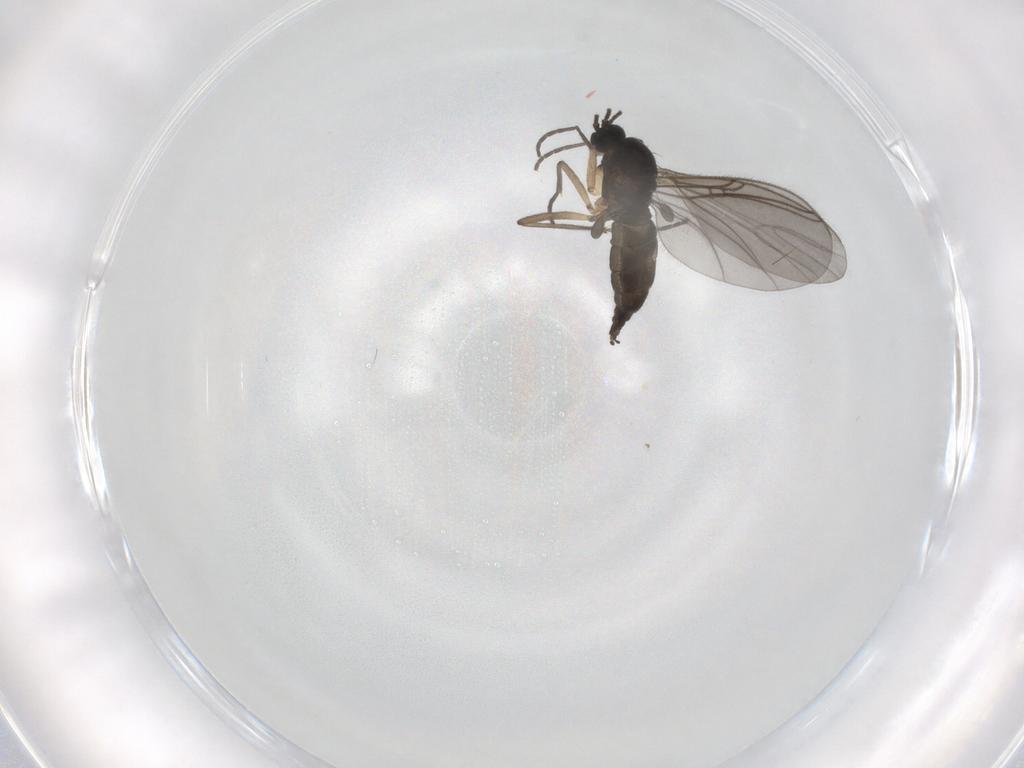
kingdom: Animalia
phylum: Arthropoda
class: Insecta
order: Diptera
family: Sciaridae
